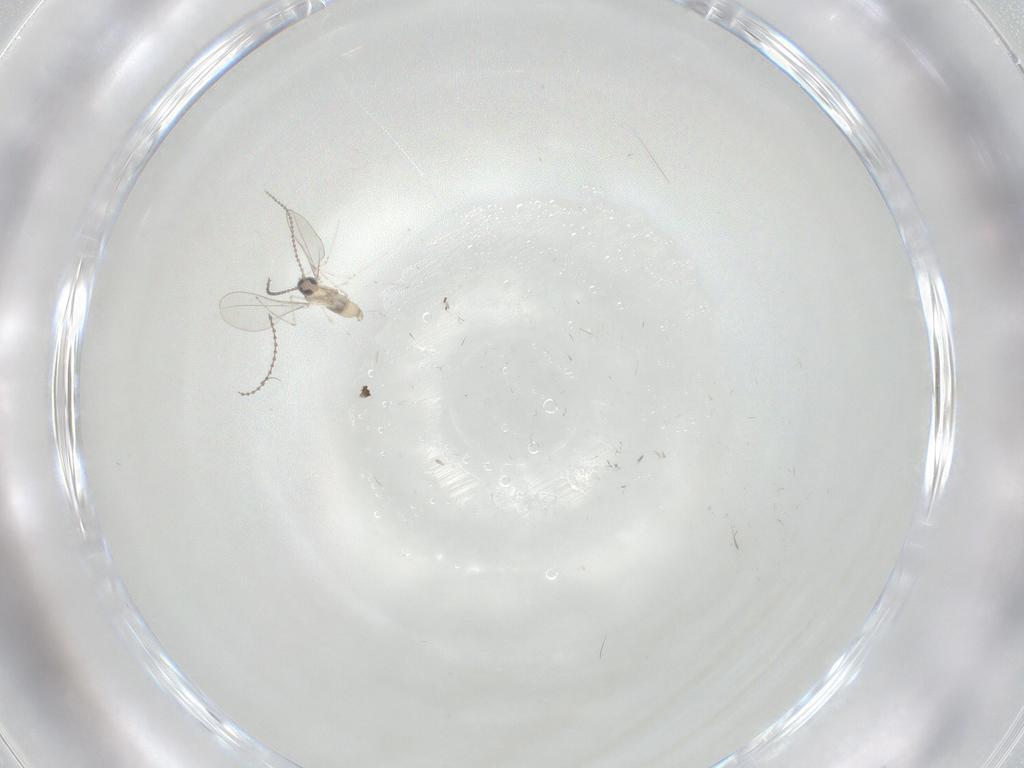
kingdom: Animalia
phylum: Arthropoda
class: Insecta
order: Diptera
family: Cecidomyiidae
